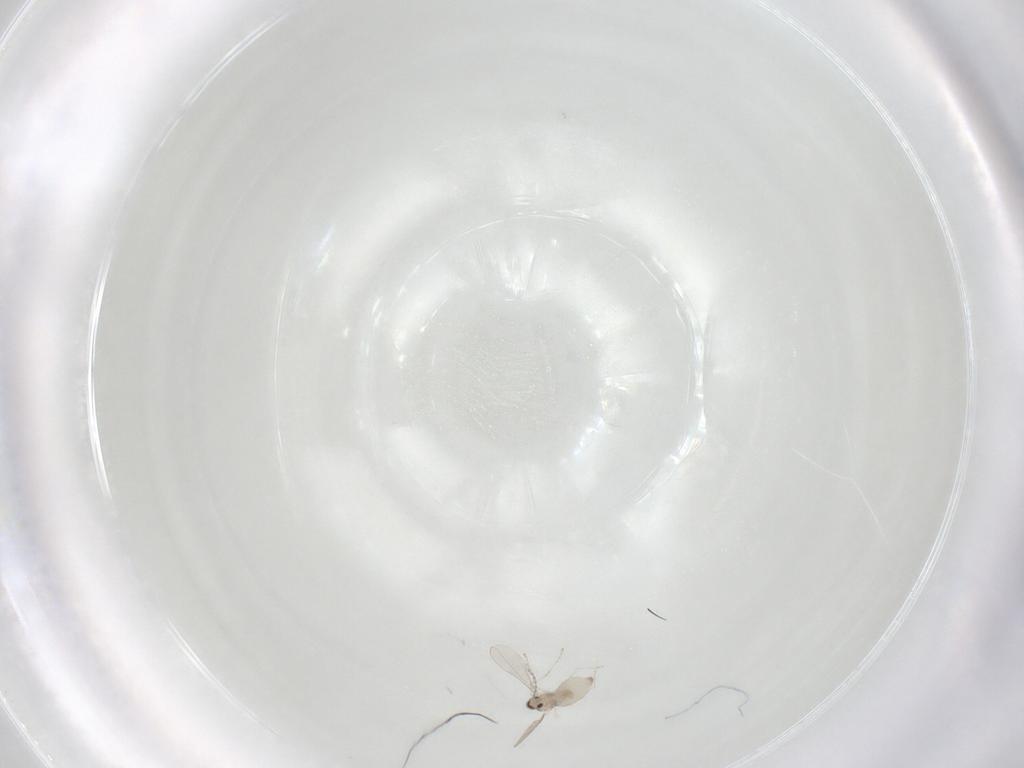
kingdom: Animalia
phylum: Arthropoda
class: Insecta
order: Diptera
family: Cecidomyiidae
